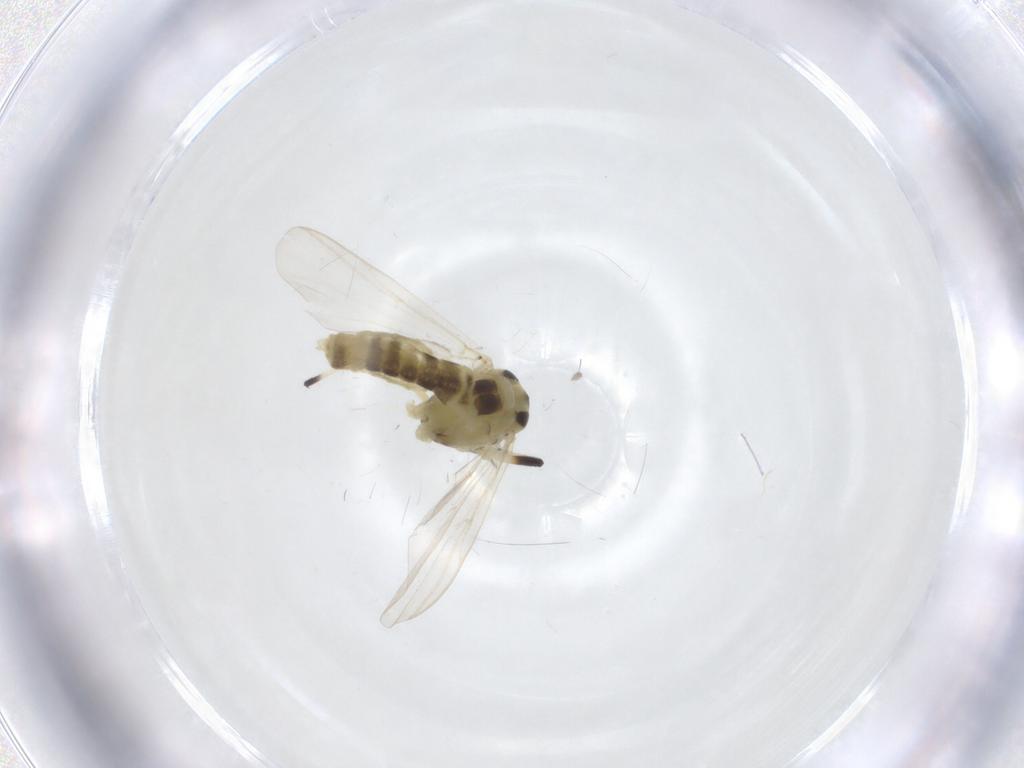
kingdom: Animalia
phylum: Arthropoda
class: Insecta
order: Diptera
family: Chironomidae
